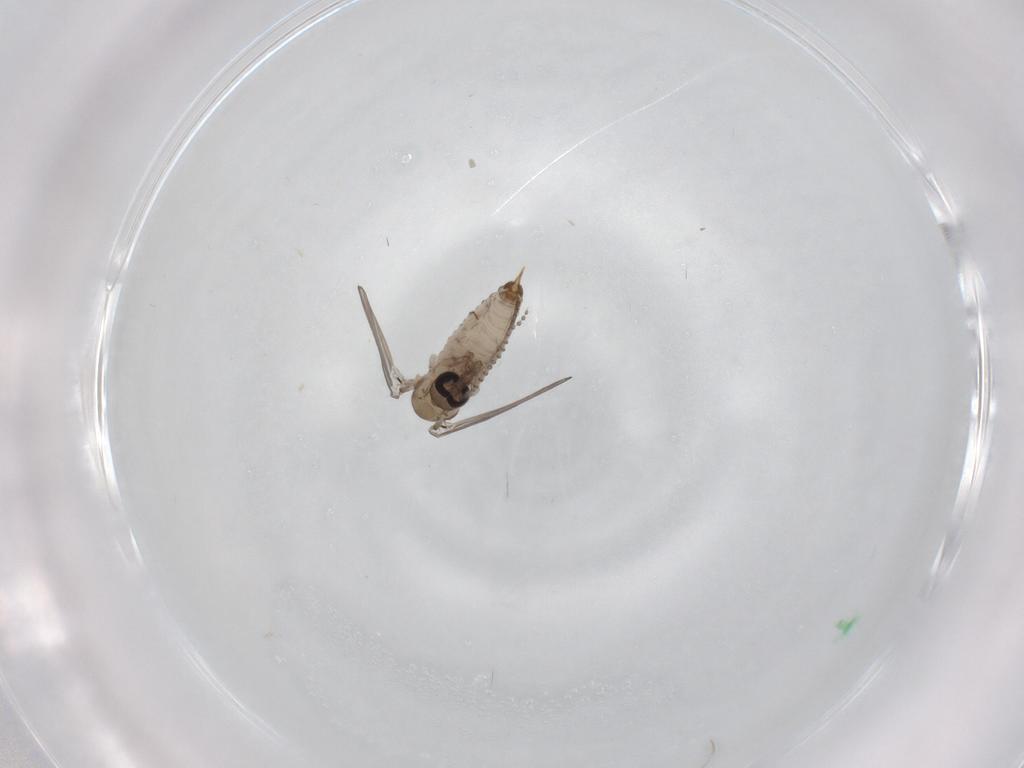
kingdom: Animalia
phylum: Arthropoda
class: Insecta
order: Diptera
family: Psychodidae
